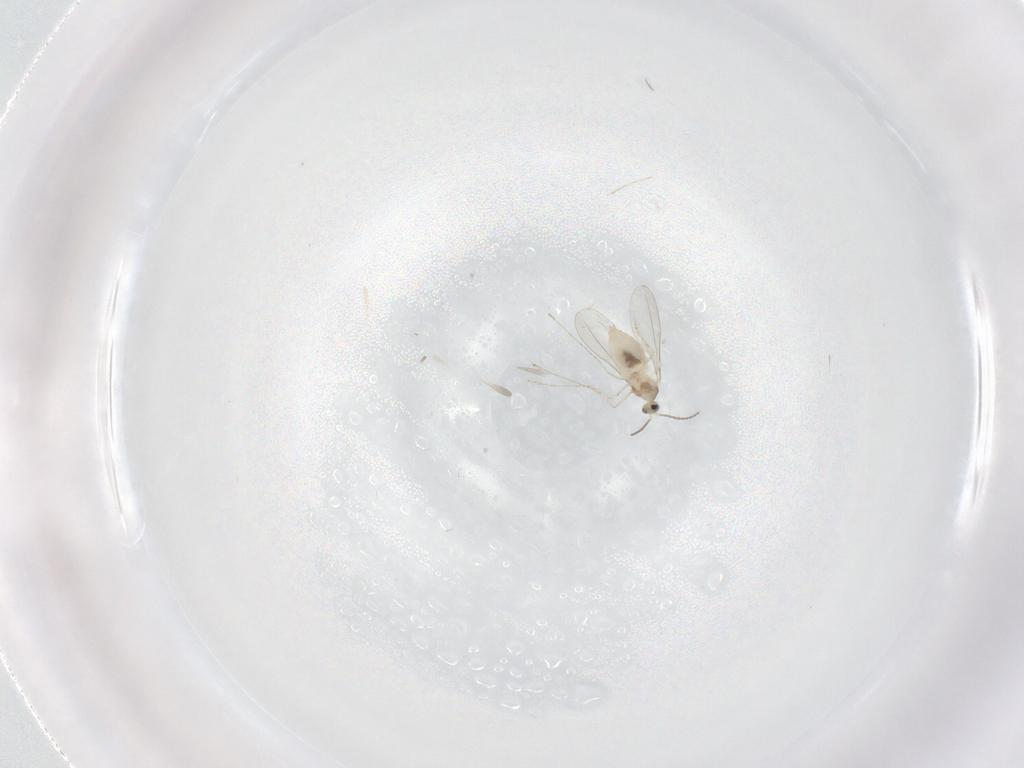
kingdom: Animalia
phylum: Arthropoda
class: Insecta
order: Diptera
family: Cecidomyiidae
